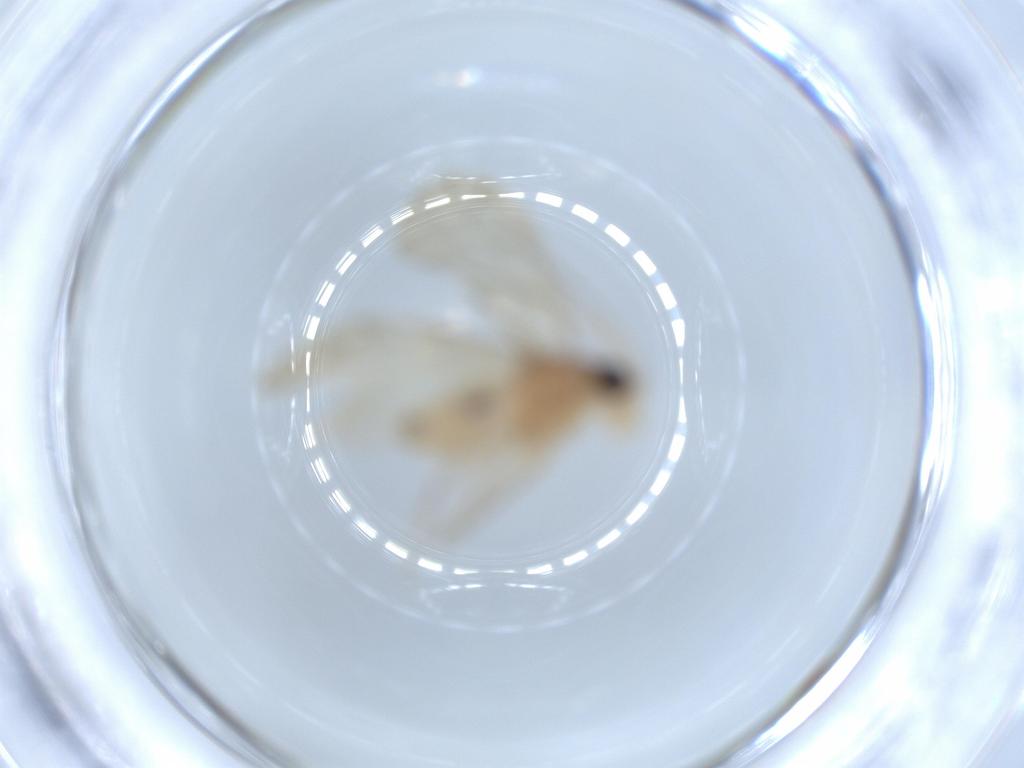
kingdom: Animalia
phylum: Arthropoda
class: Insecta
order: Psocodea
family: Caeciliusidae
